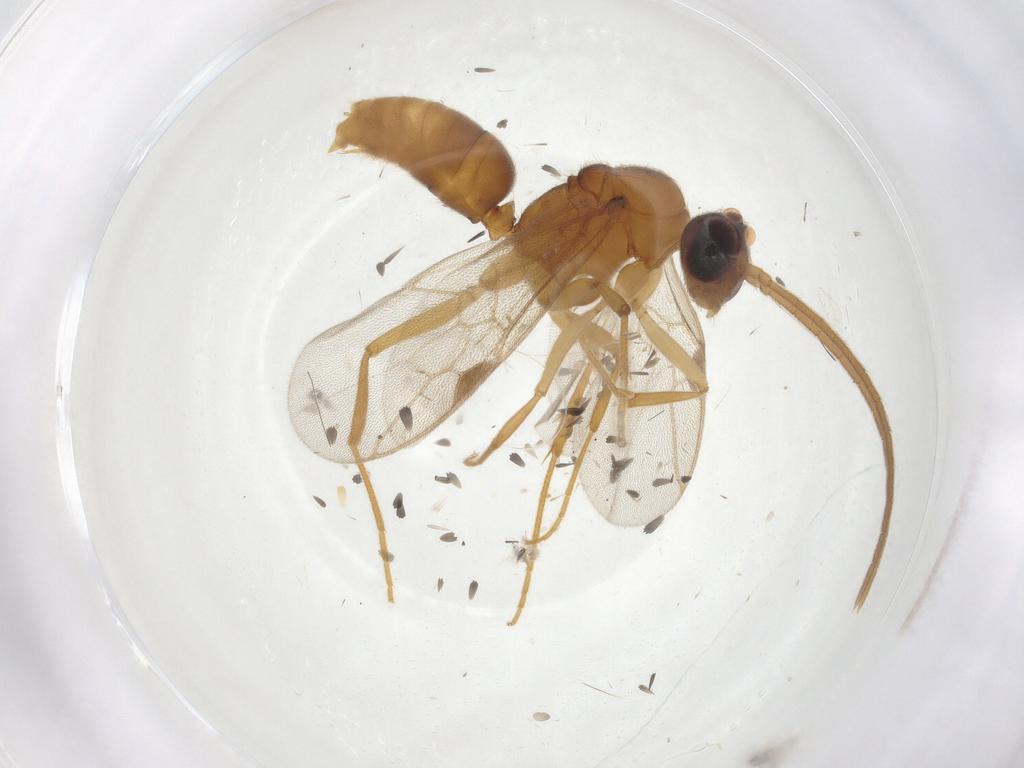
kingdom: Animalia
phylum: Arthropoda
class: Insecta
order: Hymenoptera
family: Formicidae
